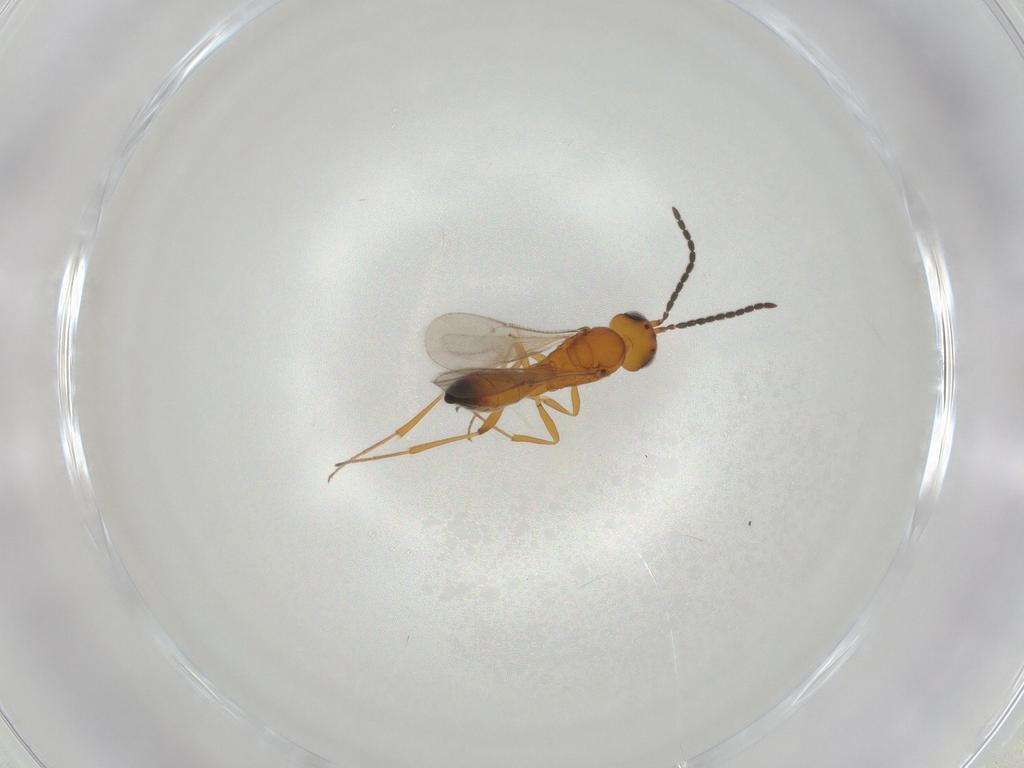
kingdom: Animalia
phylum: Arthropoda
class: Insecta
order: Hymenoptera
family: Scelionidae
